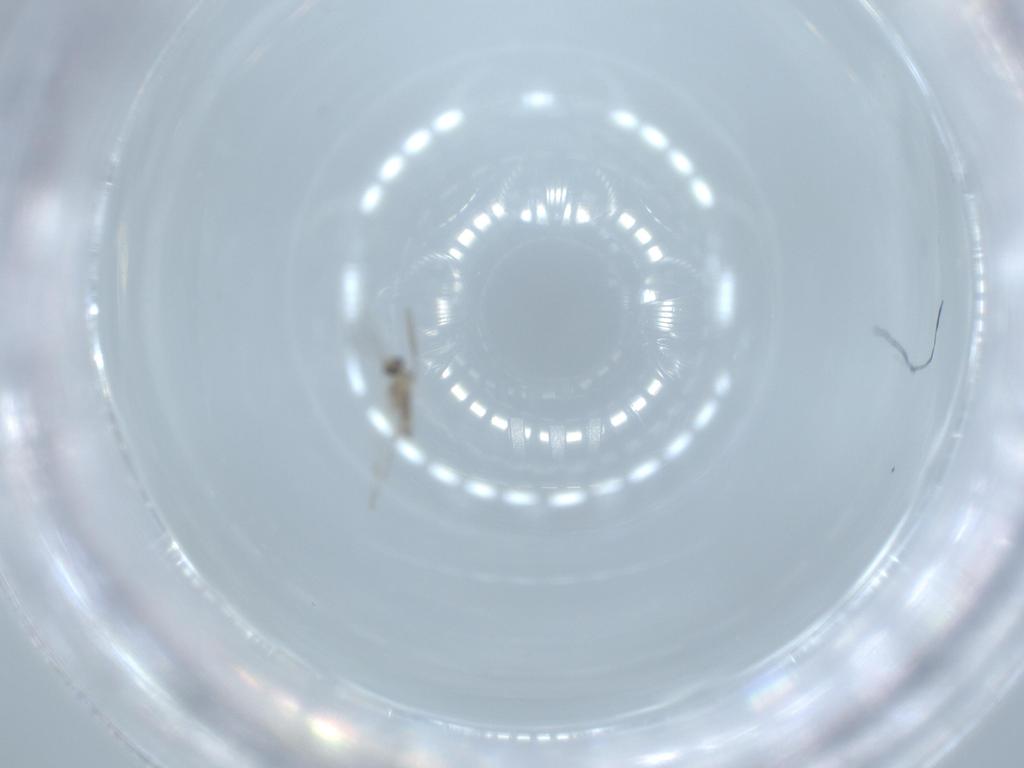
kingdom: Animalia
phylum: Arthropoda
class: Insecta
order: Diptera
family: Cecidomyiidae
